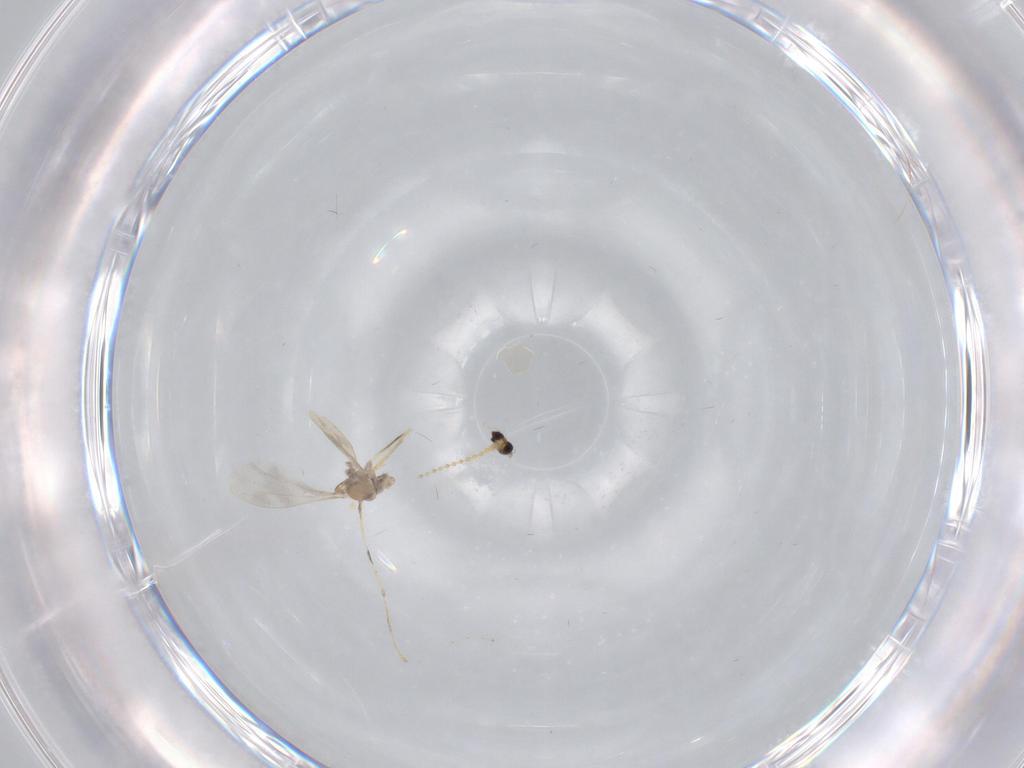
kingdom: Animalia
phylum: Arthropoda
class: Insecta
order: Diptera
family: Cecidomyiidae
